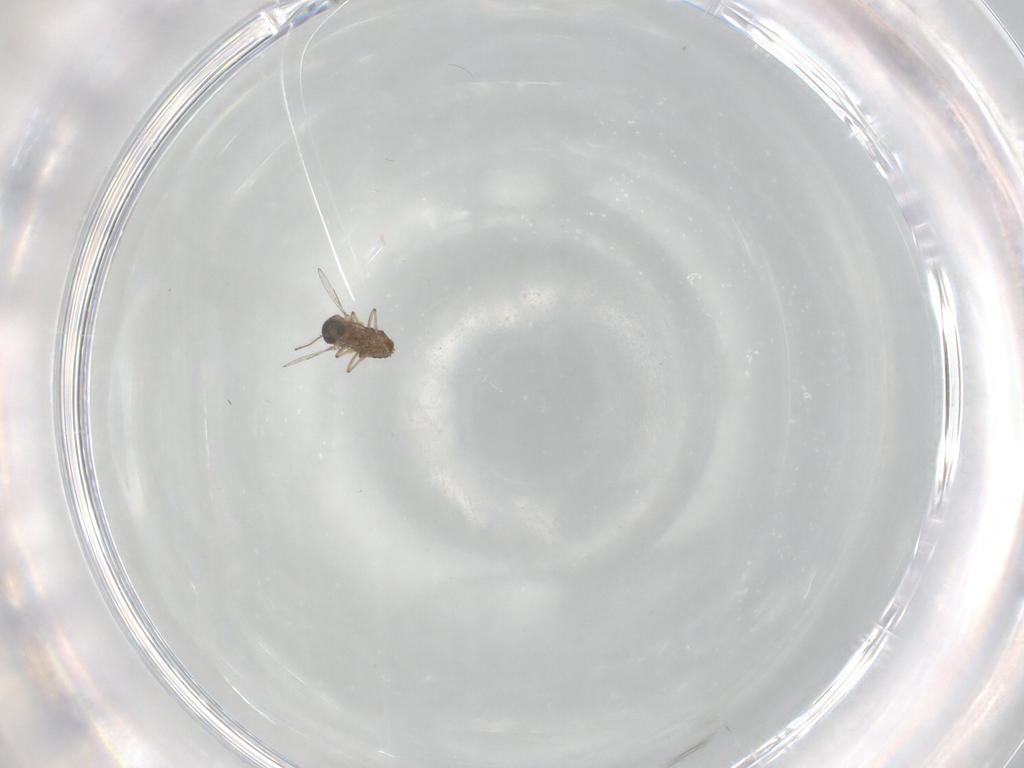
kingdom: Animalia
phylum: Arthropoda
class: Insecta
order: Diptera
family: Ceratopogonidae
